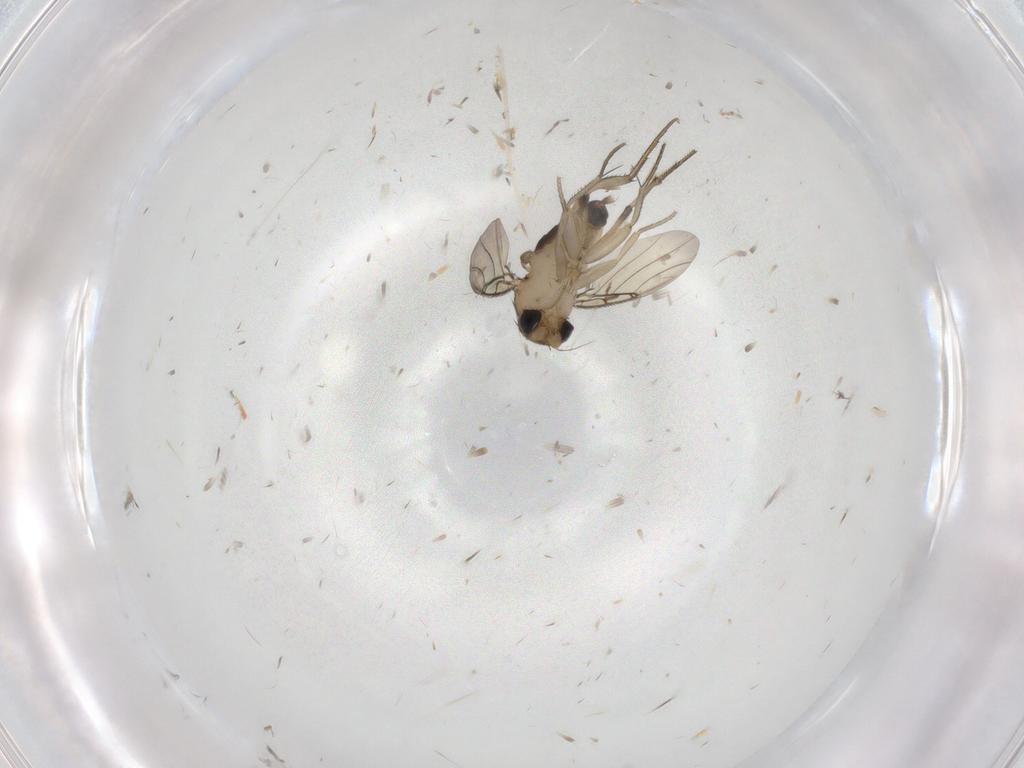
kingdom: Animalia
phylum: Arthropoda
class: Insecta
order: Diptera
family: Cecidomyiidae
